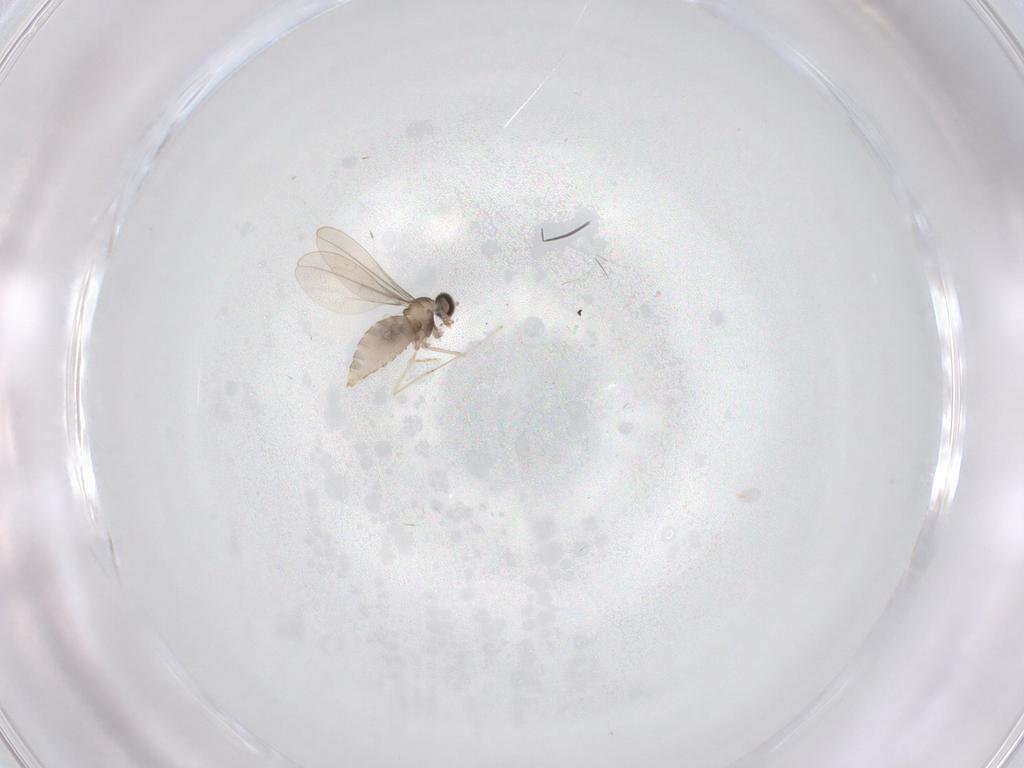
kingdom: Animalia
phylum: Arthropoda
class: Insecta
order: Diptera
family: Cecidomyiidae
